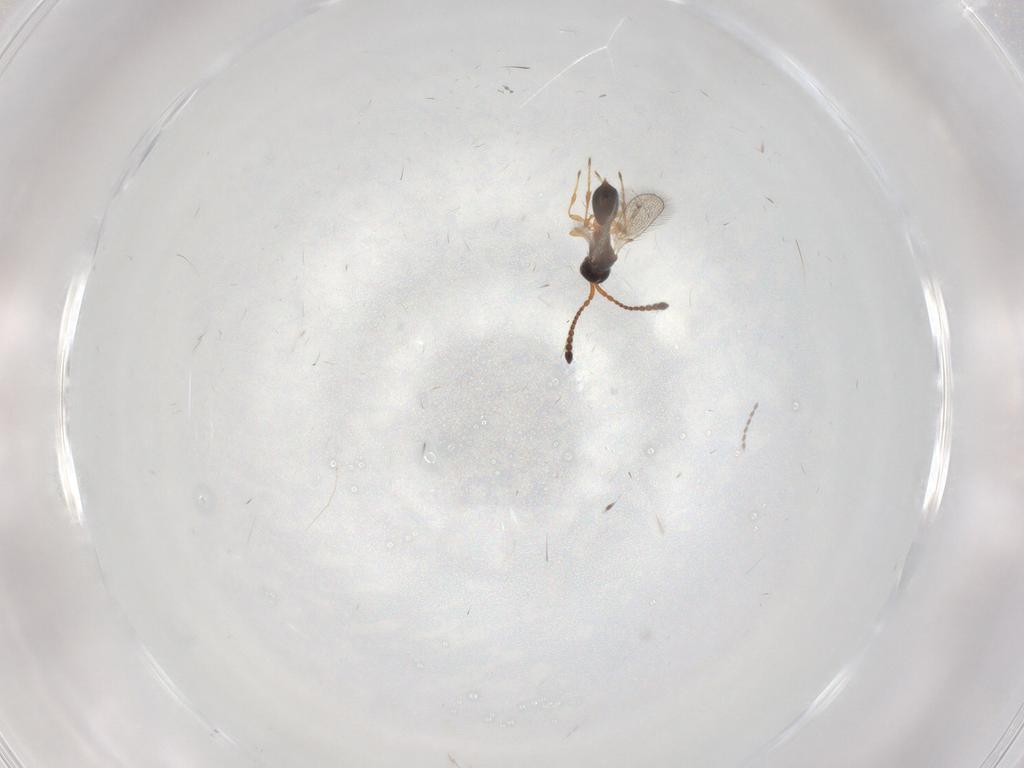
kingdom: Animalia
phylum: Arthropoda
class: Insecta
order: Hymenoptera
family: Diapriidae
